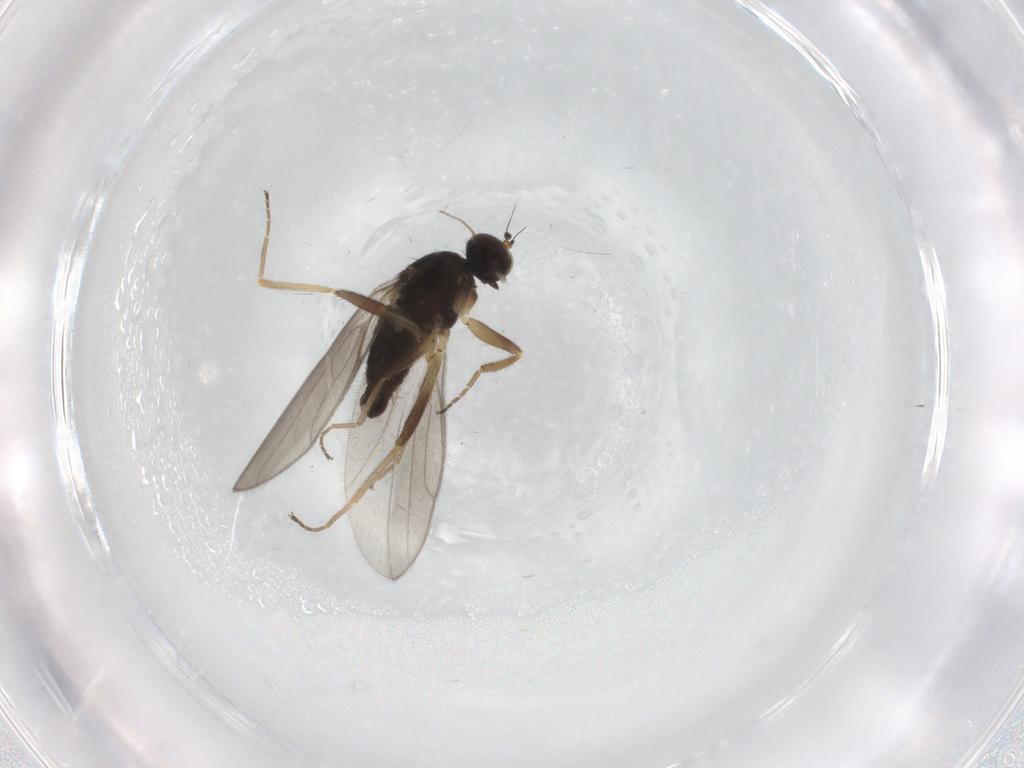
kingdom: Animalia
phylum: Arthropoda
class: Insecta
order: Diptera
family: Hybotidae
